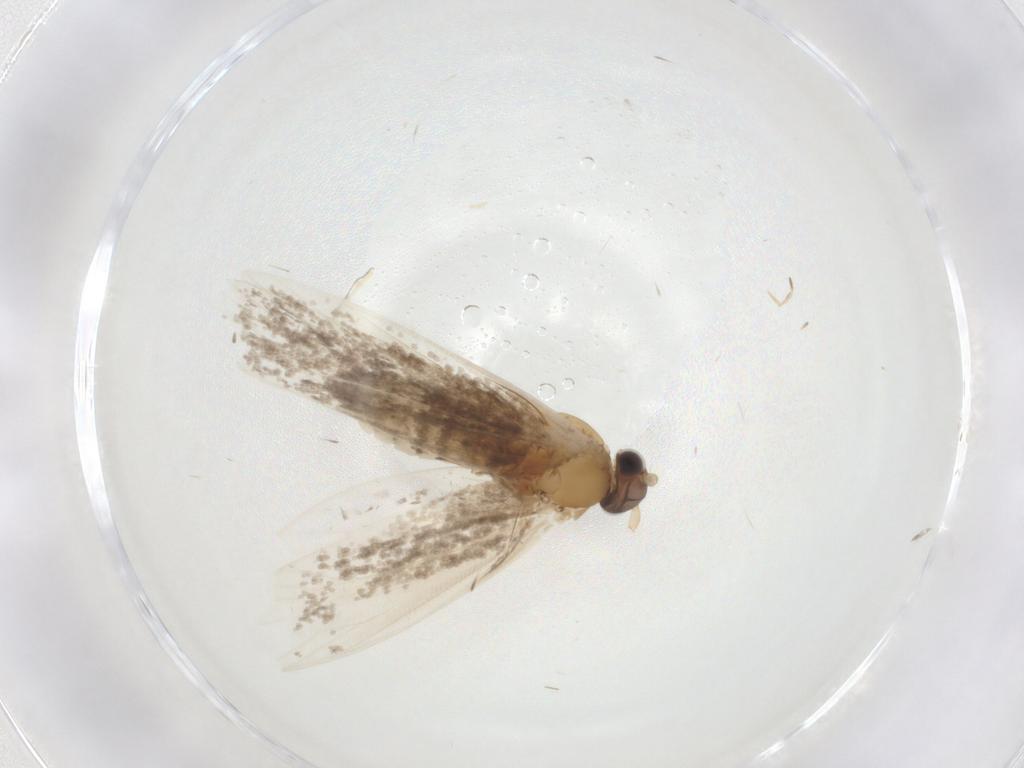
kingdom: Animalia
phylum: Arthropoda
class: Insecta
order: Lepidoptera
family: Tineidae
